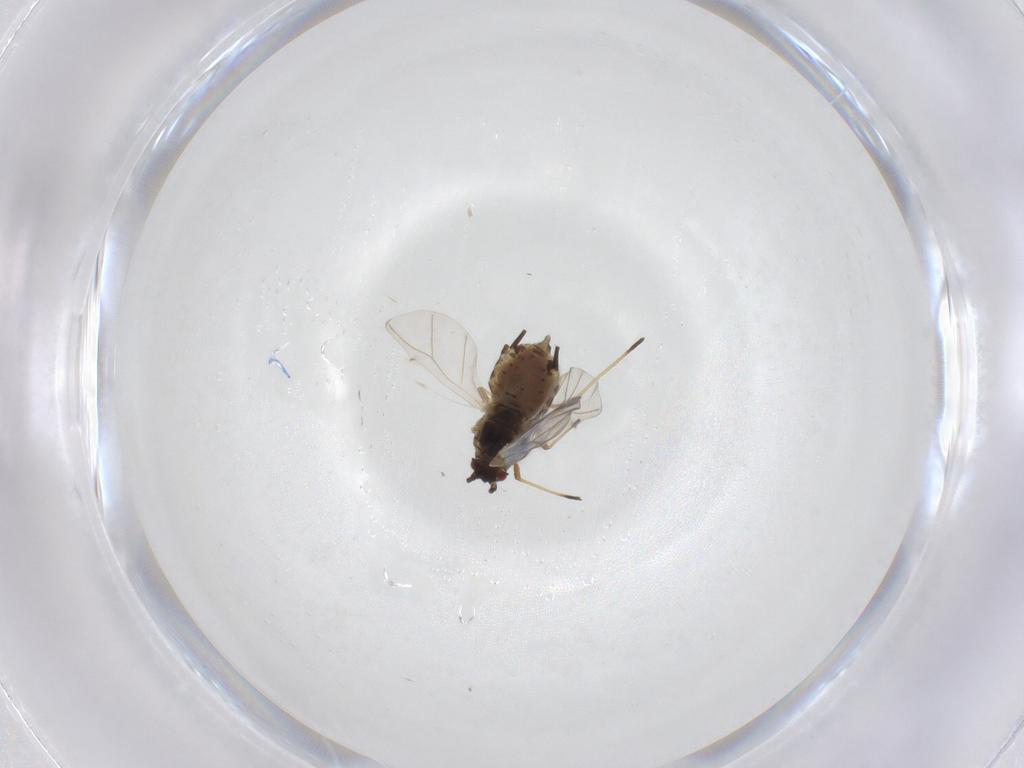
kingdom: Animalia
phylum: Arthropoda
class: Insecta
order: Hemiptera
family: Aphididae
